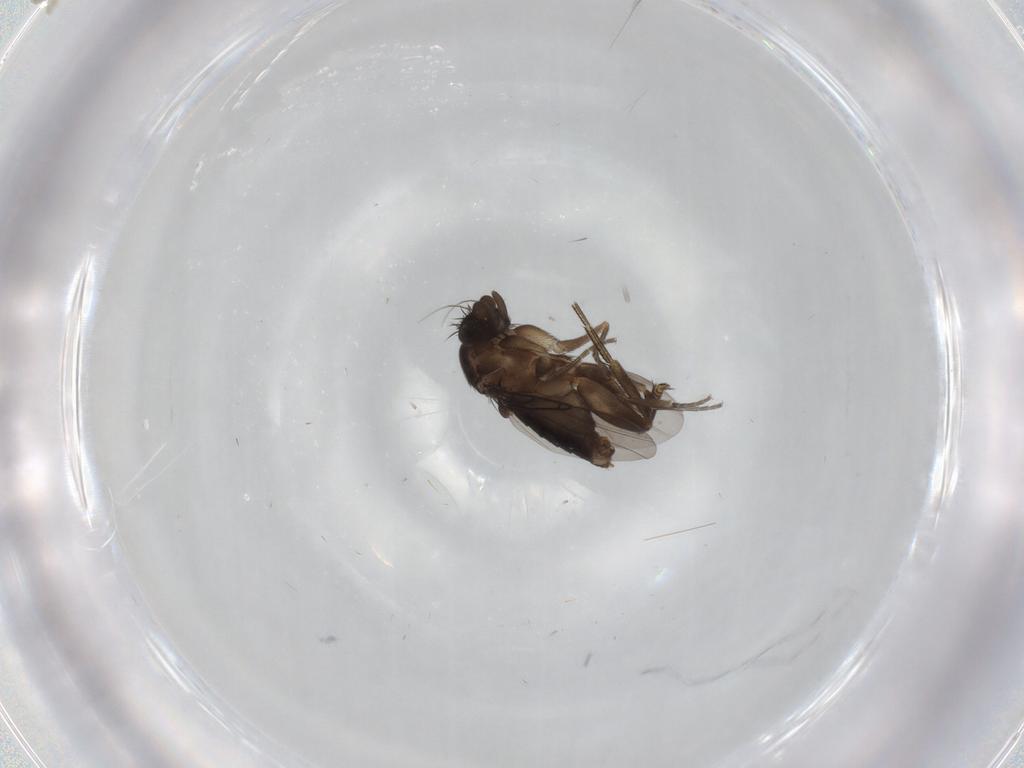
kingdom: Animalia
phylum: Arthropoda
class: Insecta
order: Diptera
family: Phoridae
